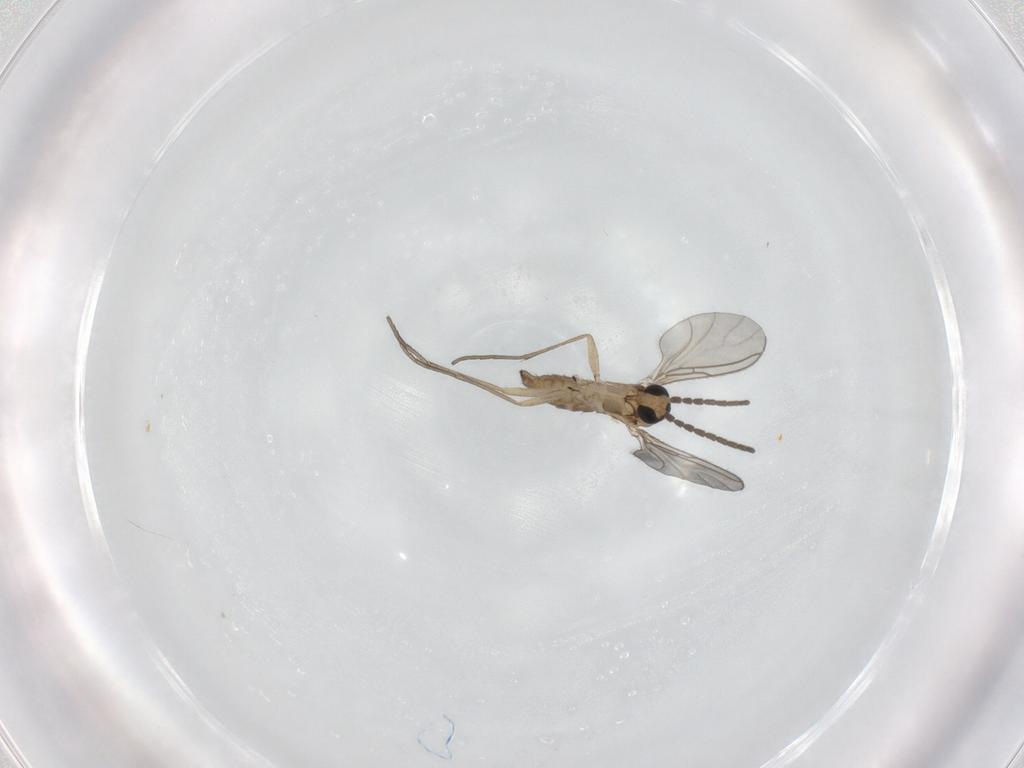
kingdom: Animalia
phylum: Arthropoda
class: Insecta
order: Diptera
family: Sciaridae
